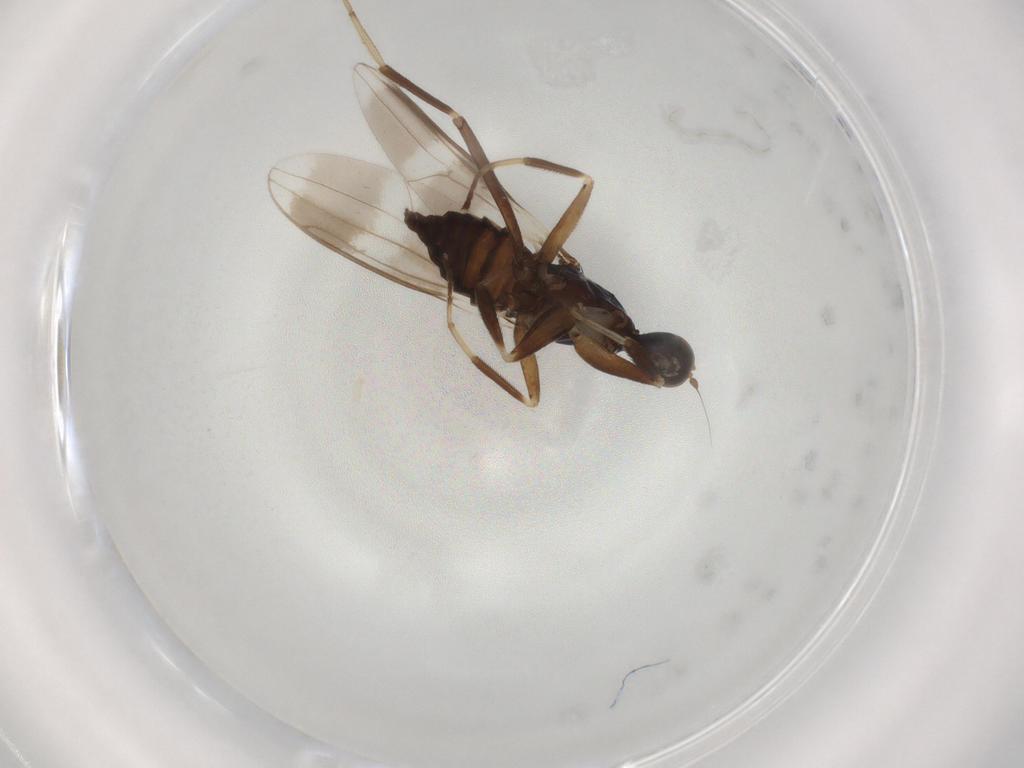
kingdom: Animalia
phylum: Arthropoda
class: Insecta
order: Diptera
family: Hybotidae
